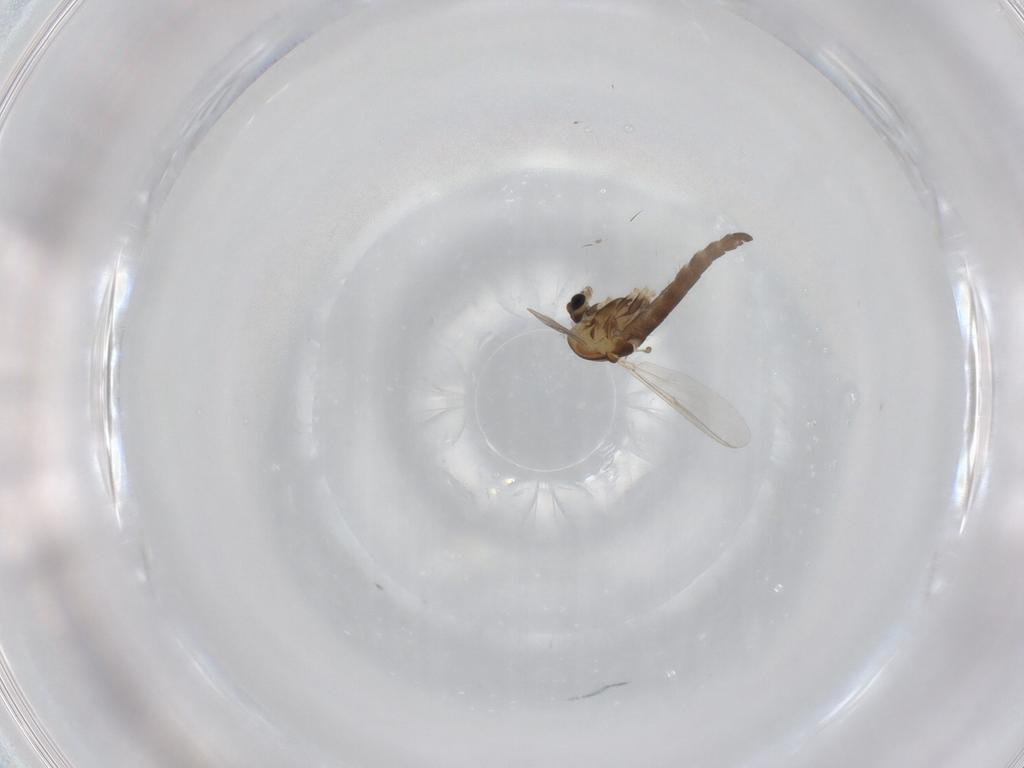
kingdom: Animalia
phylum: Arthropoda
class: Insecta
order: Diptera
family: Chironomidae
